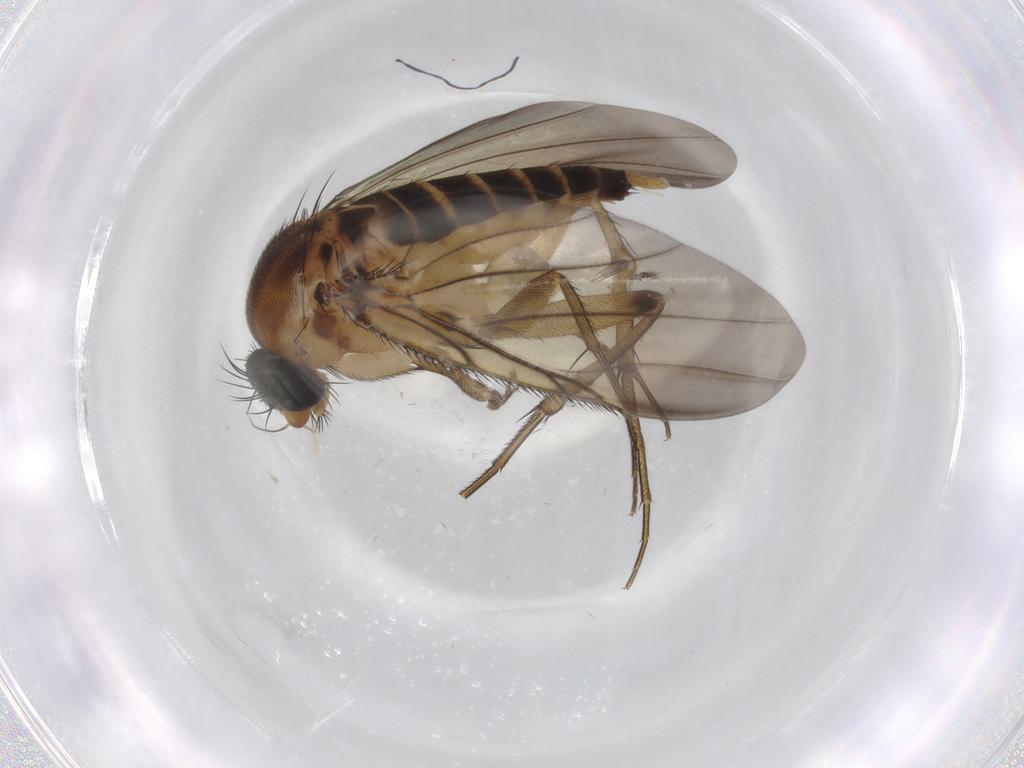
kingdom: Animalia
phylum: Arthropoda
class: Insecta
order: Diptera
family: Phoridae
